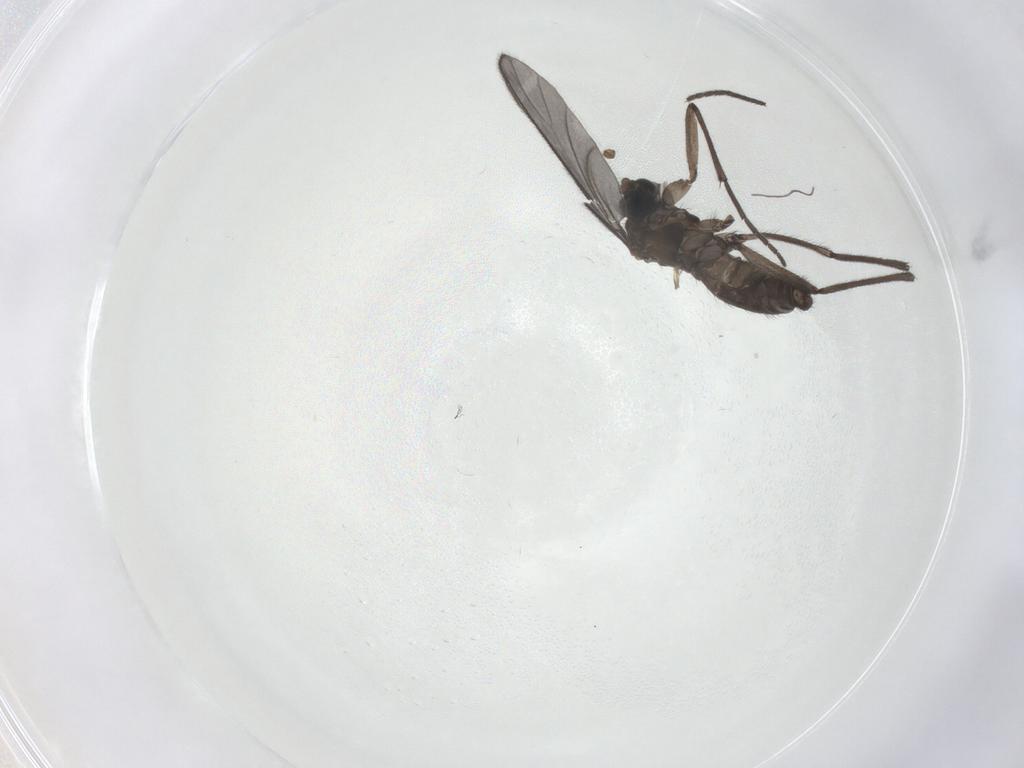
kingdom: Animalia
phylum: Arthropoda
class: Insecta
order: Diptera
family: Sciaridae
